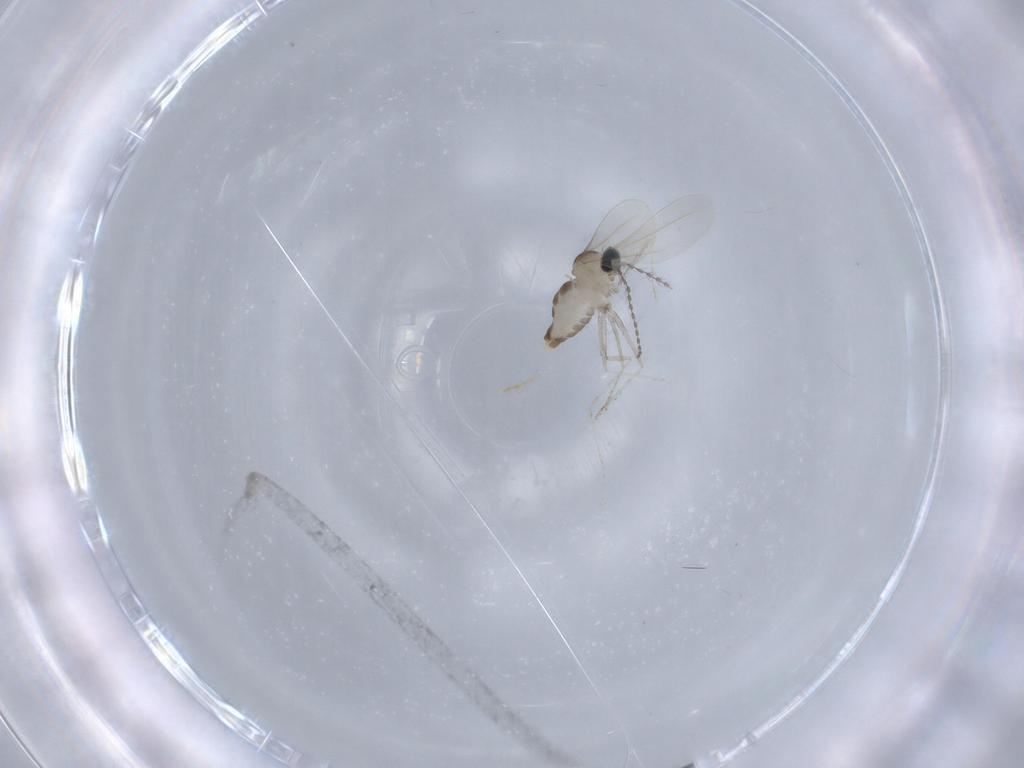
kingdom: Animalia
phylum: Arthropoda
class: Insecta
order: Diptera
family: Cecidomyiidae
